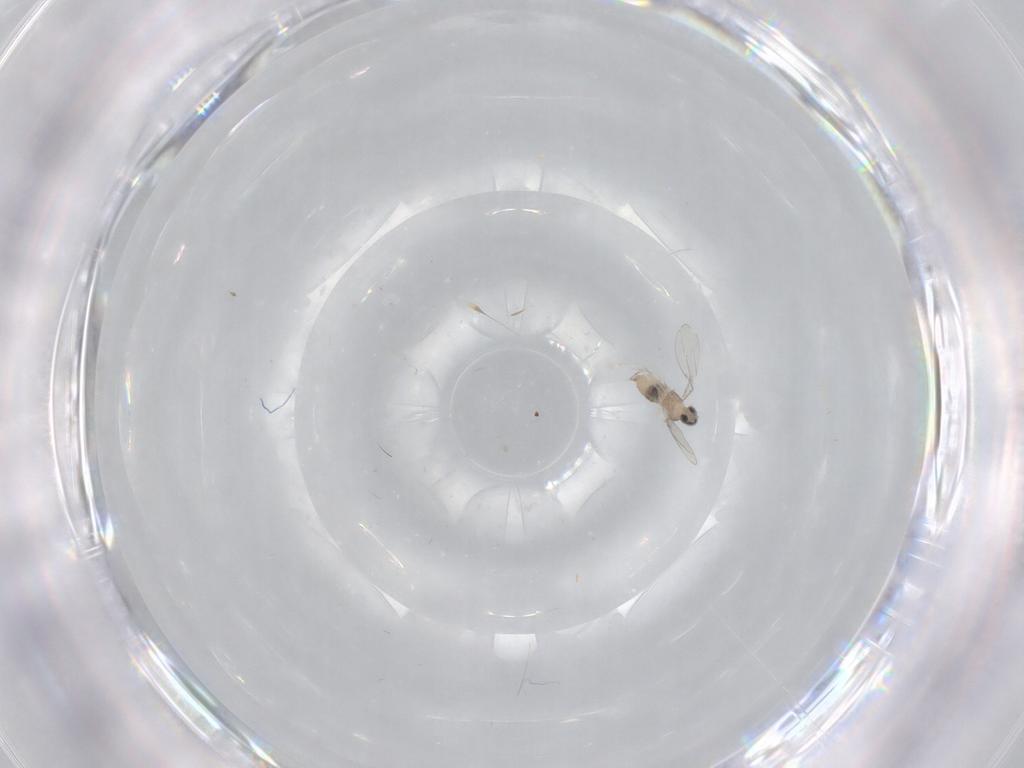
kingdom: Animalia
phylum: Arthropoda
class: Insecta
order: Diptera
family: Cecidomyiidae
